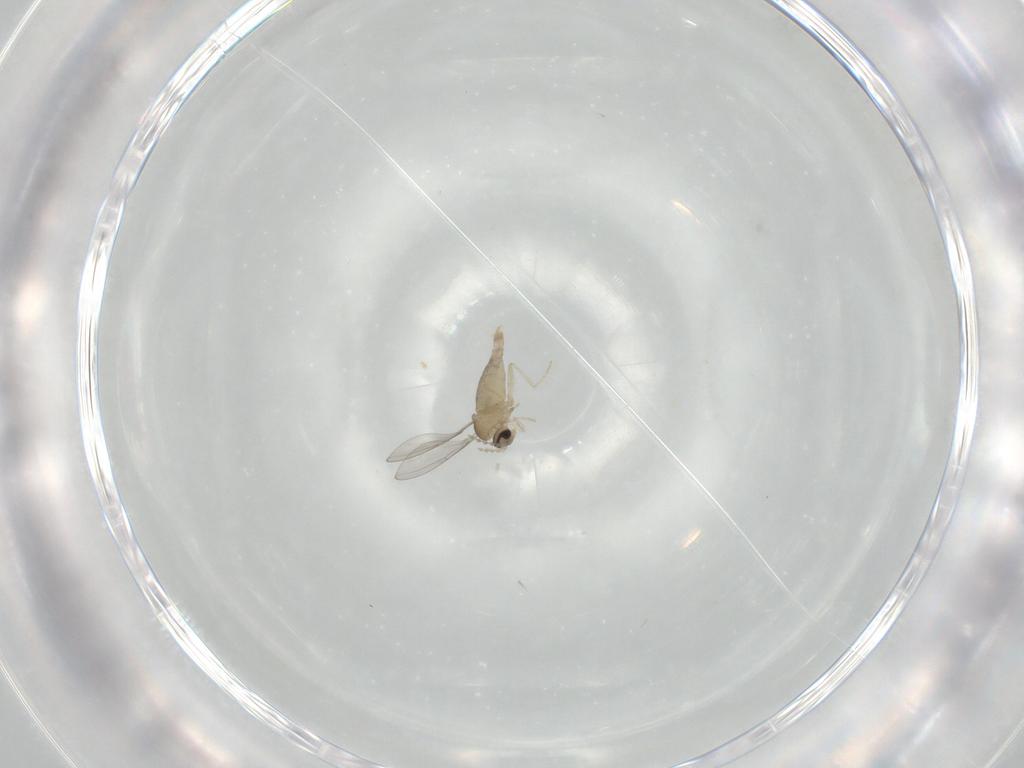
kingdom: Animalia
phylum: Arthropoda
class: Insecta
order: Diptera
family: Cecidomyiidae
